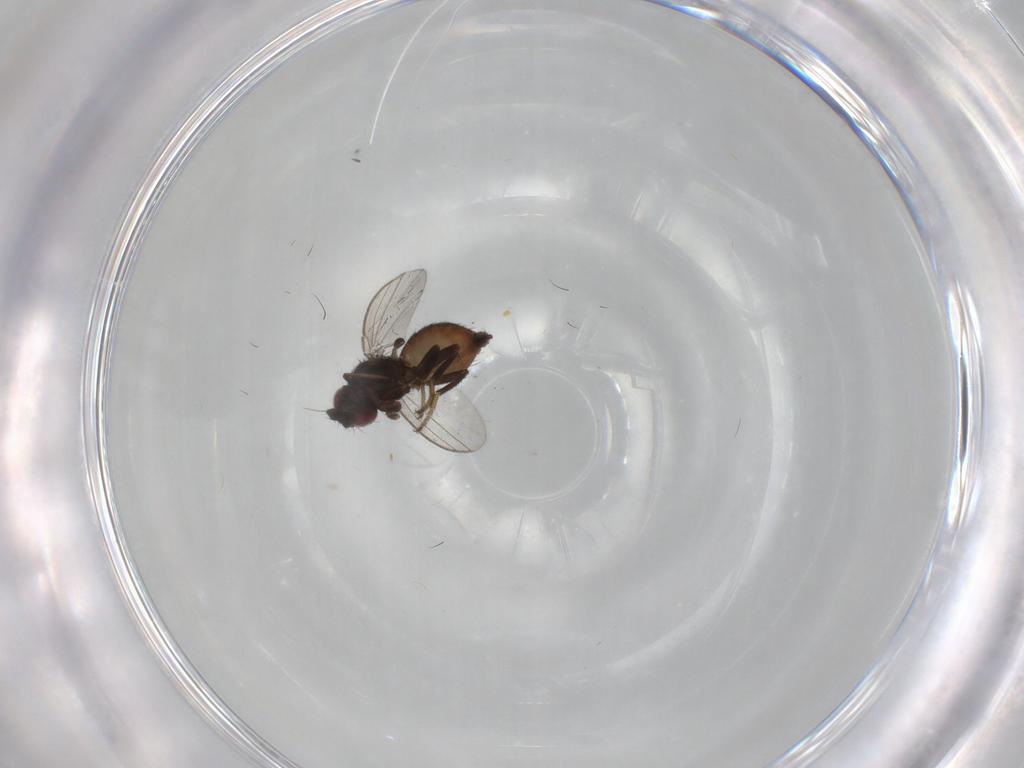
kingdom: Animalia
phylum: Arthropoda
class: Insecta
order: Diptera
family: Milichiidae
